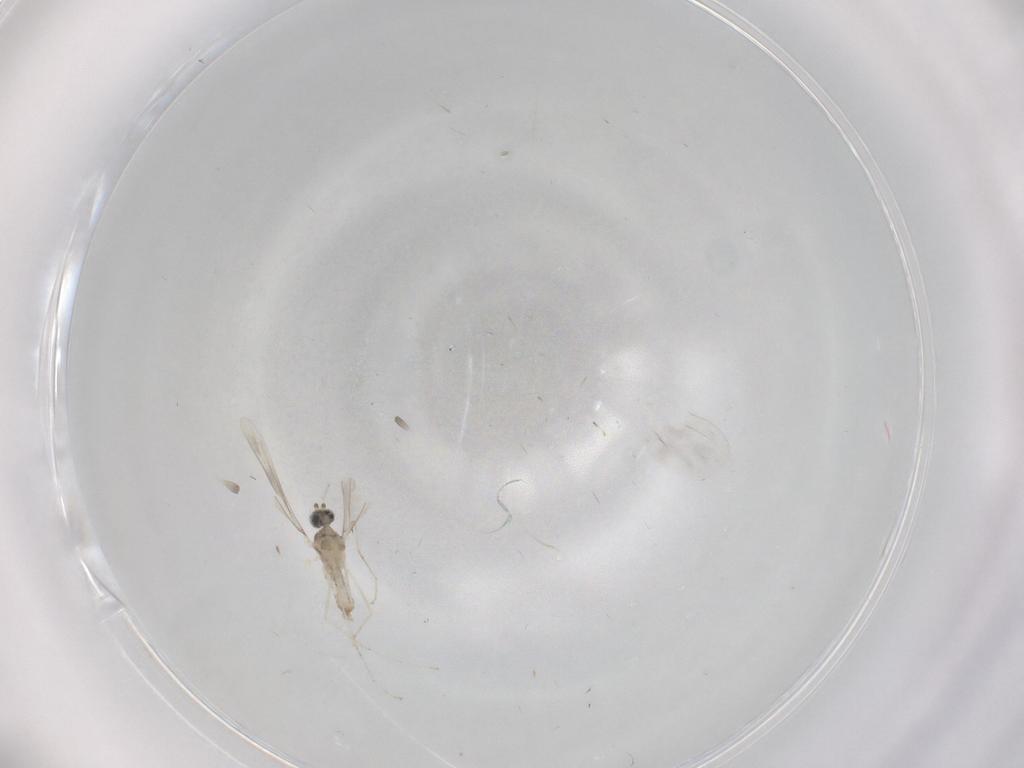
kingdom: Animalia
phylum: Arthropoda
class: Insecta
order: Diptera
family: Cecidomyiidae
